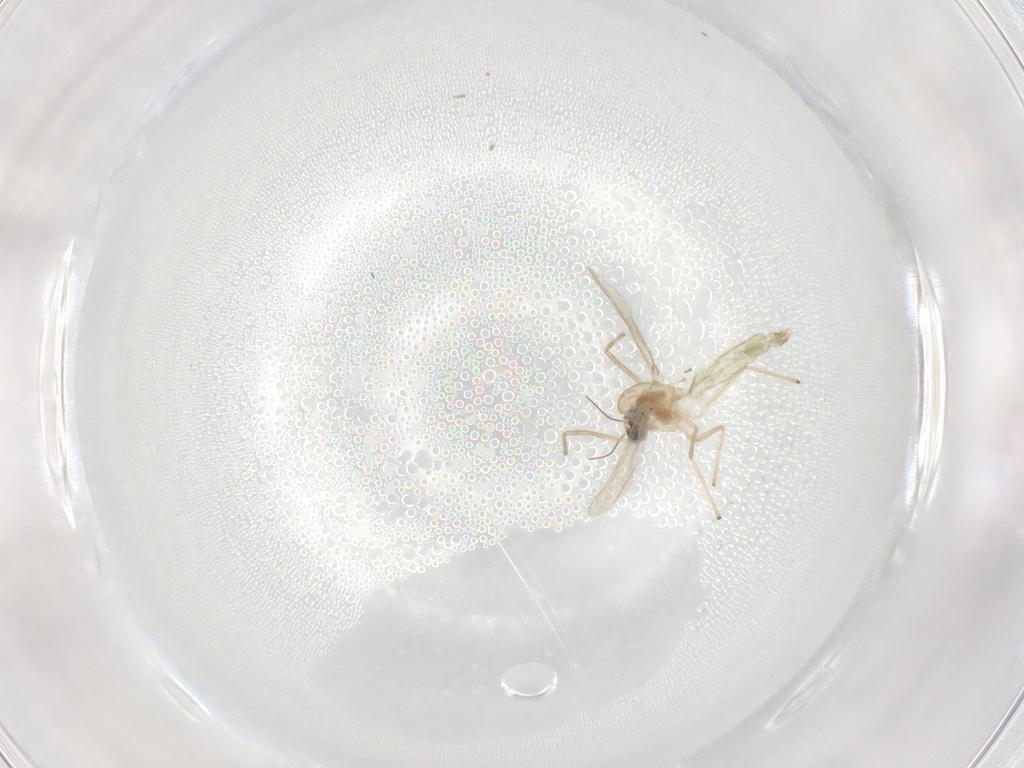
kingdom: Animalia
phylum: Arthropoda
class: Insecta
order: Diptera
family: Chironomidae
